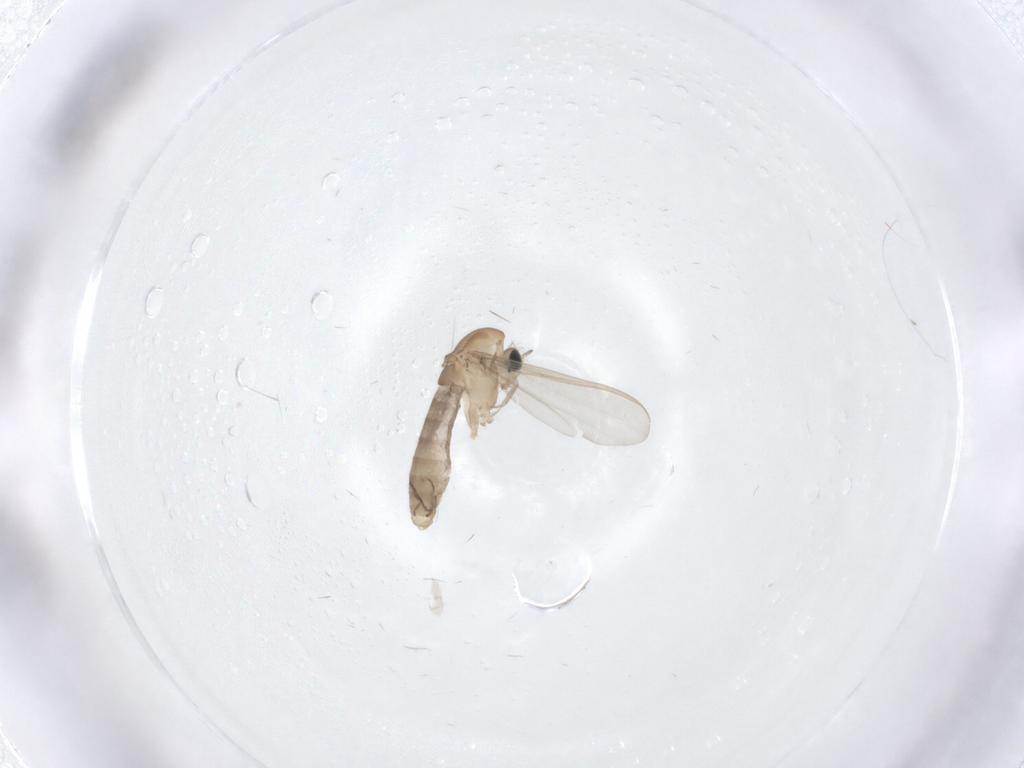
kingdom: Animalia
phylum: Arthropoda
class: Insecta
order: Diptera
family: Chironomidae
